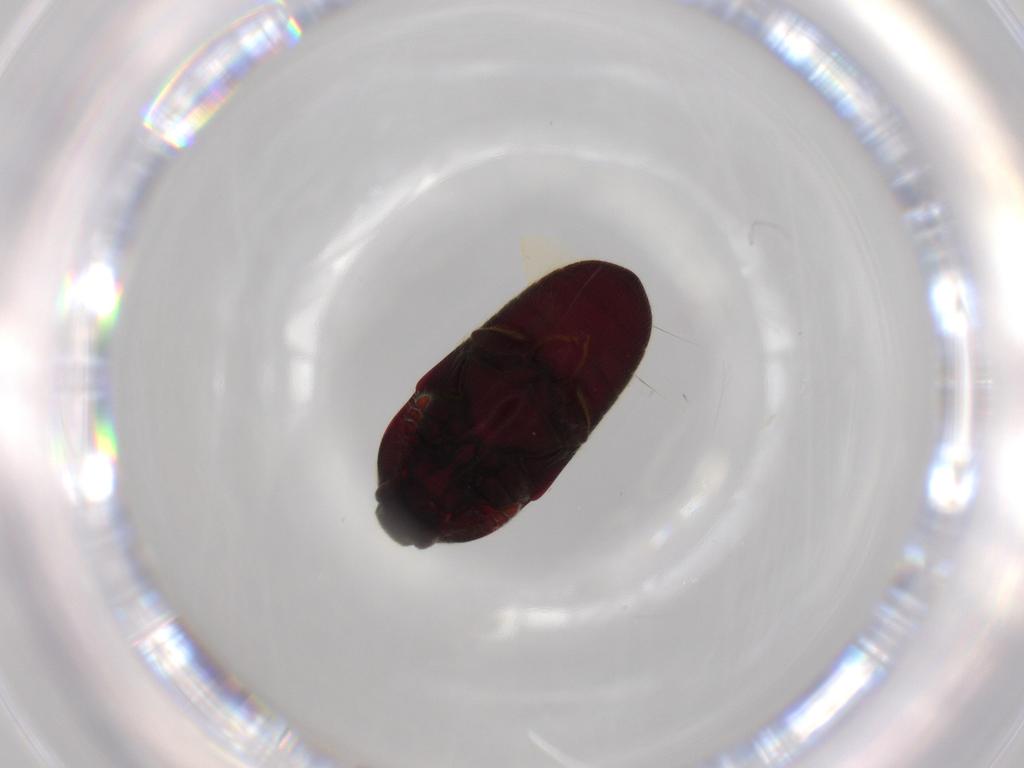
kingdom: Animalia
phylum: Arthropoda
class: Insecta
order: Coleoptera
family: Throscidae
